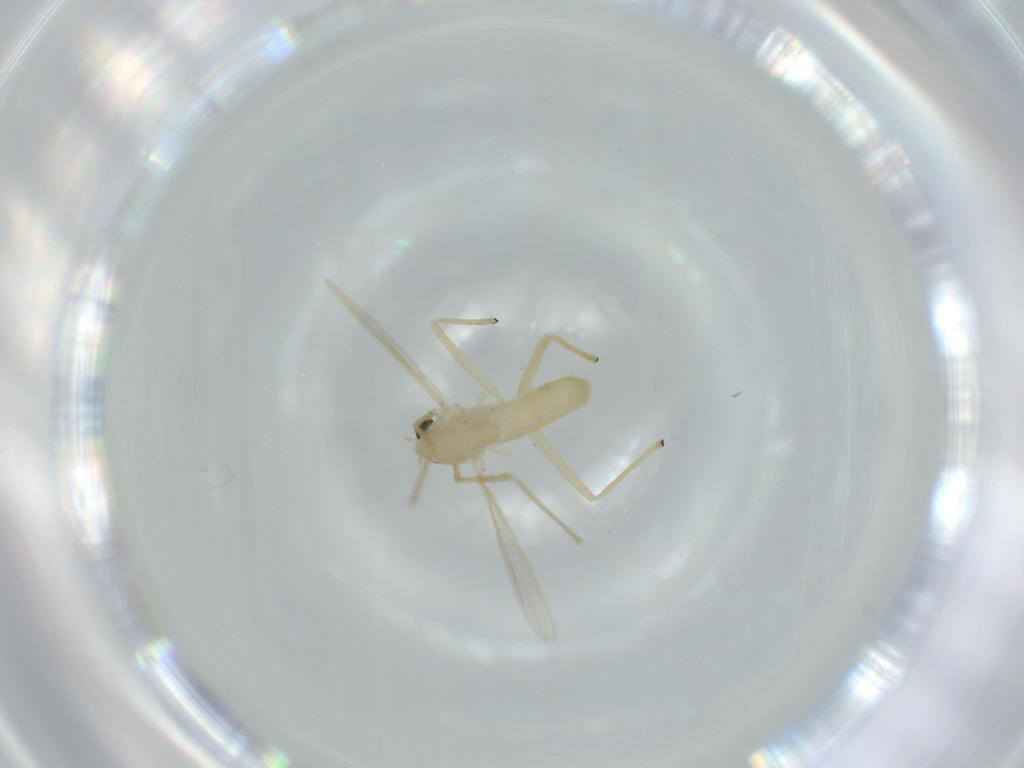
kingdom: Animalia
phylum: Arthropoda
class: Insecta
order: Diptera
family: Chironomidae
